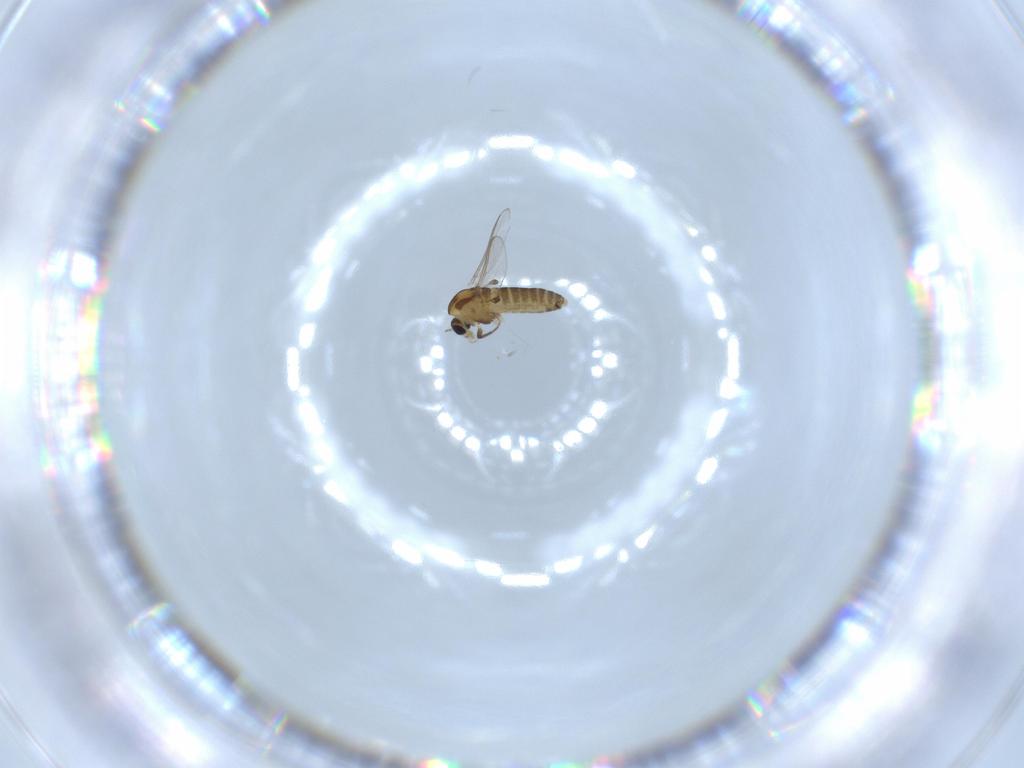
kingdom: Animalia
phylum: Arthropoda
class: Insecta
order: Diptera
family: Chironomidae
